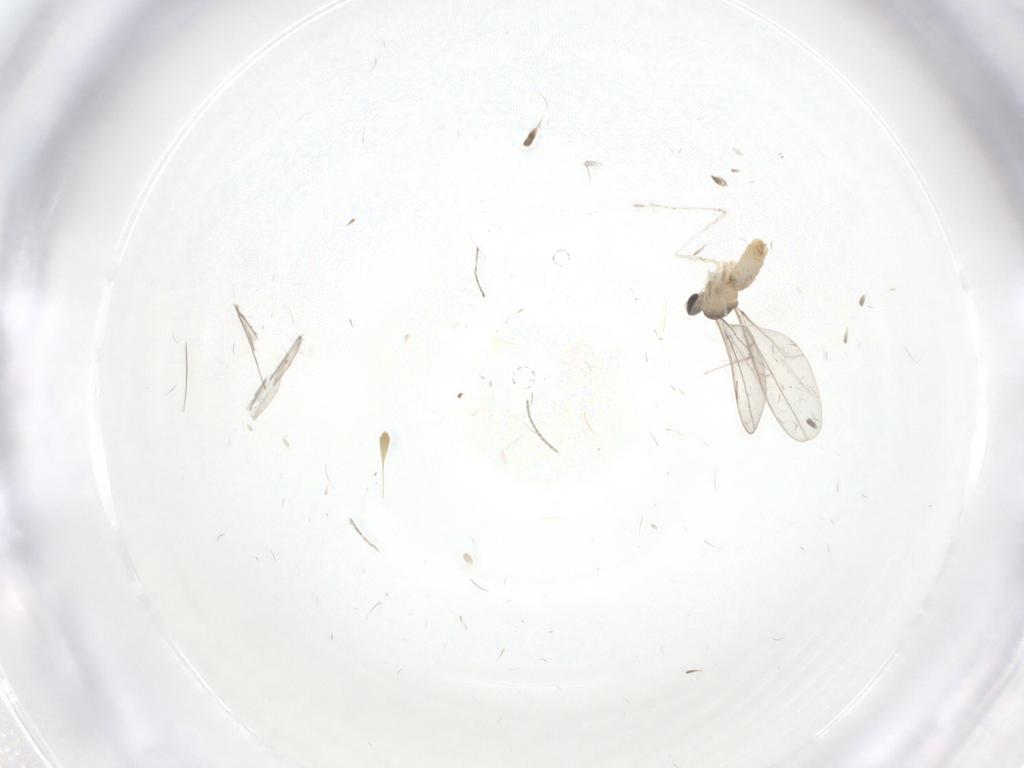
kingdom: Animalia
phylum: Arthropoda
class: Insecta
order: Diptera
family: Cecidomyiidae
